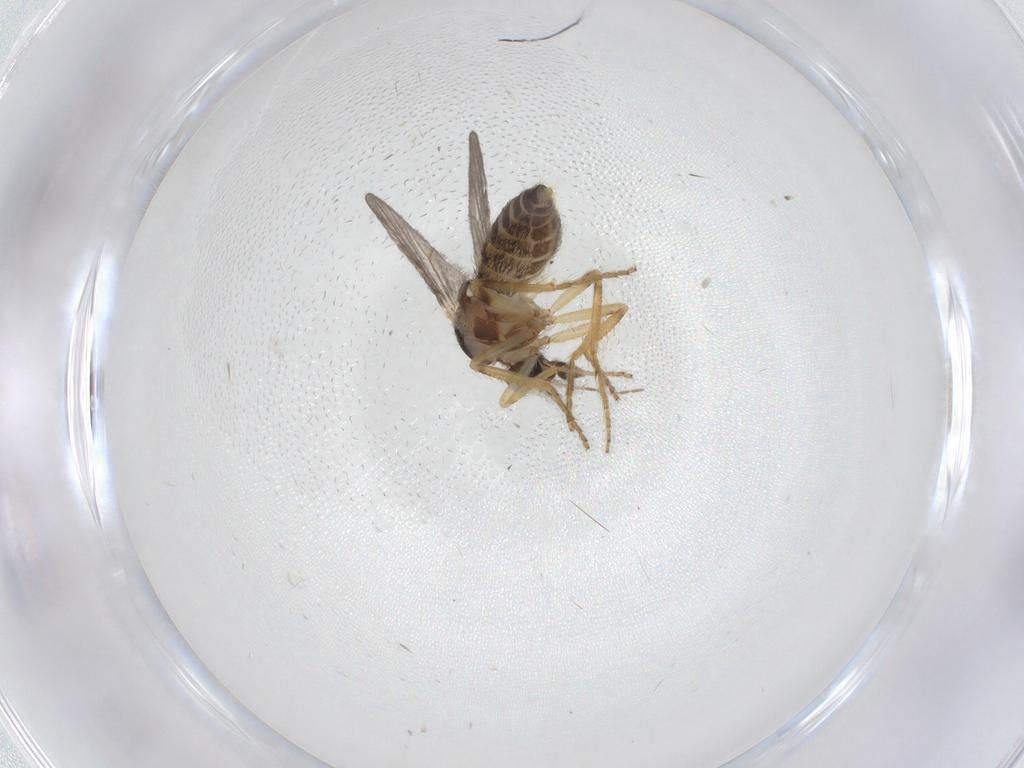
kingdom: Animalia
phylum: Arthropoda
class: Insecta
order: Diptera
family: Ceratopogonidae
